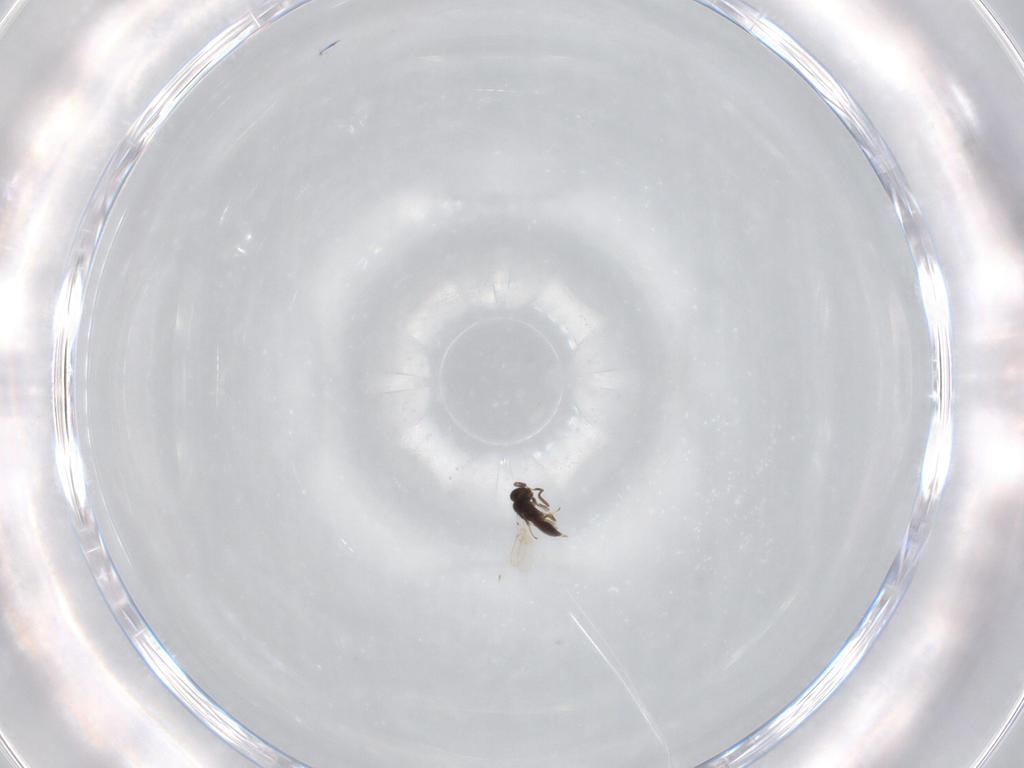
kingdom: Animalia
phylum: Arthropoda
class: Insecta
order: Hymenoptera
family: Scelionidae
